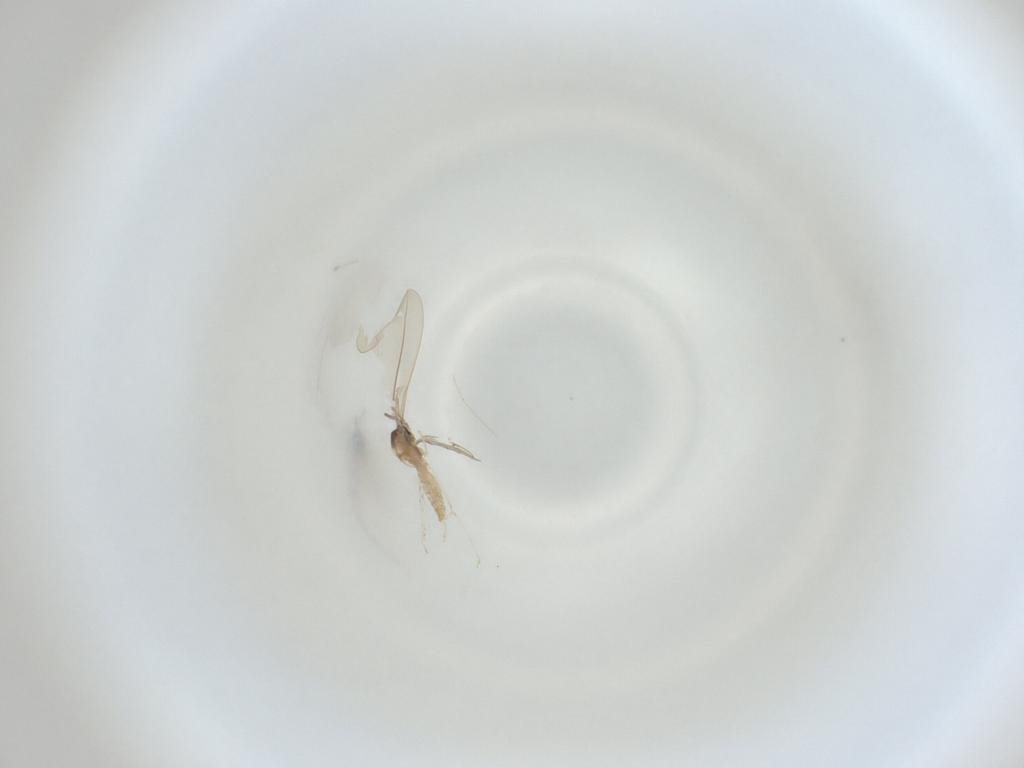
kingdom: Animalia
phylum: Arthropoda
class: Insecta
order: Diptera
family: Cecidomyiidae
